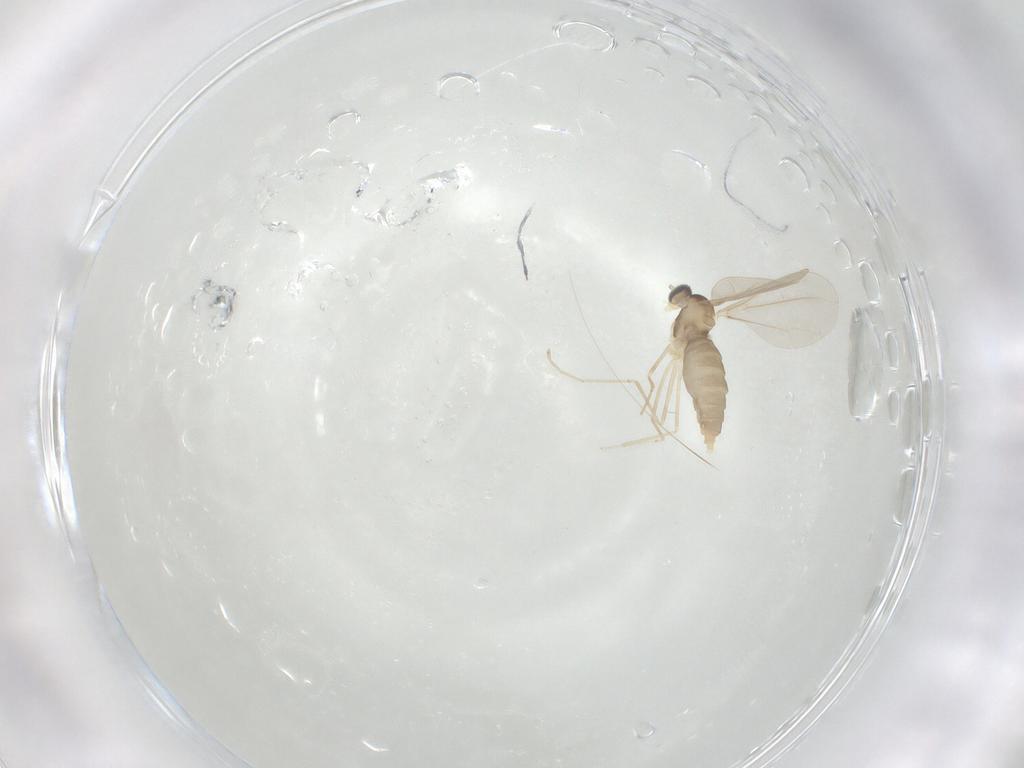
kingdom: Animalia
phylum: Arthropoda
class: Insecta
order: Diptera
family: Cecidomyiidae
